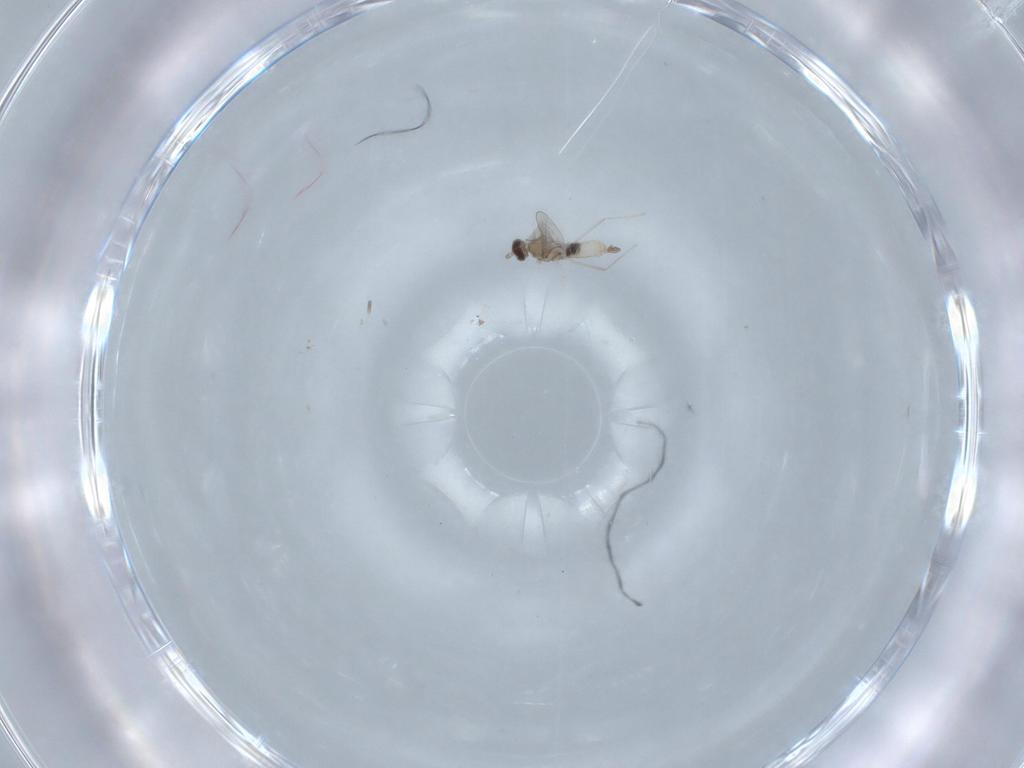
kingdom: Animalia
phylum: Arthropoda
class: Insecta
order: Diptera
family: Cecidomyiidae
